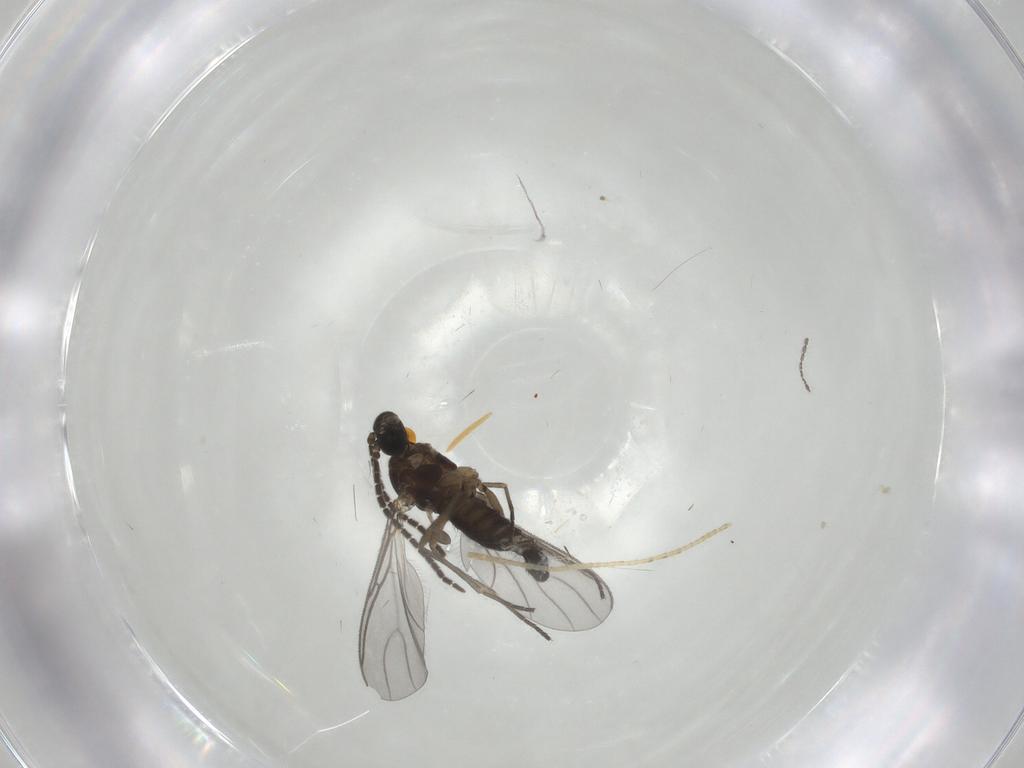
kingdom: Animalia
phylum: Arthropoda
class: Insecta
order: Diptera
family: Sciaridae
